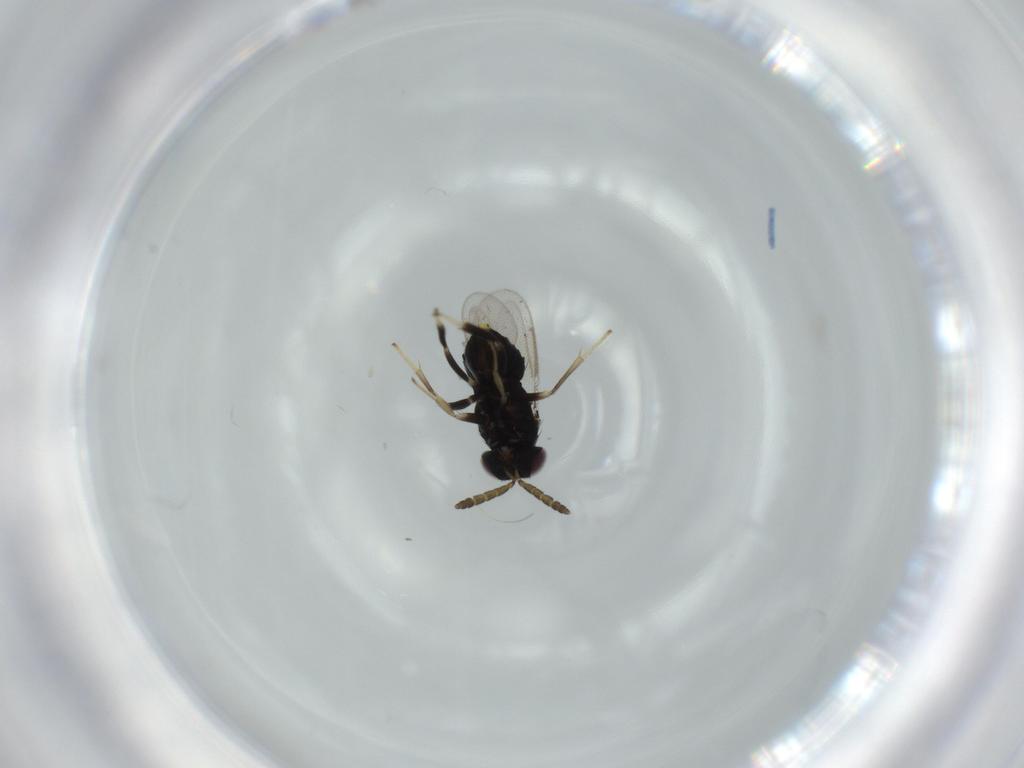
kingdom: Animalia
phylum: Arthropoda
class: Insecta
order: Hymenoptera
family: Aphelinidae
